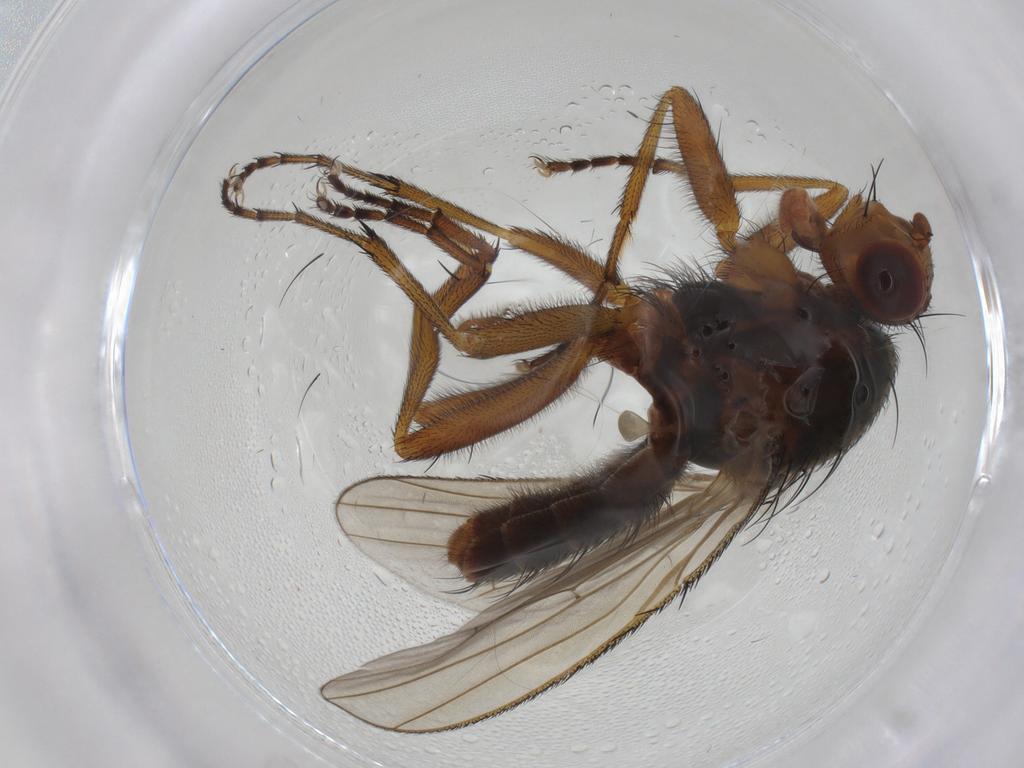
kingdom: Animalia
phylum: Arthropoda
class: Insecta
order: Diptera
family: Heleomyzidae
